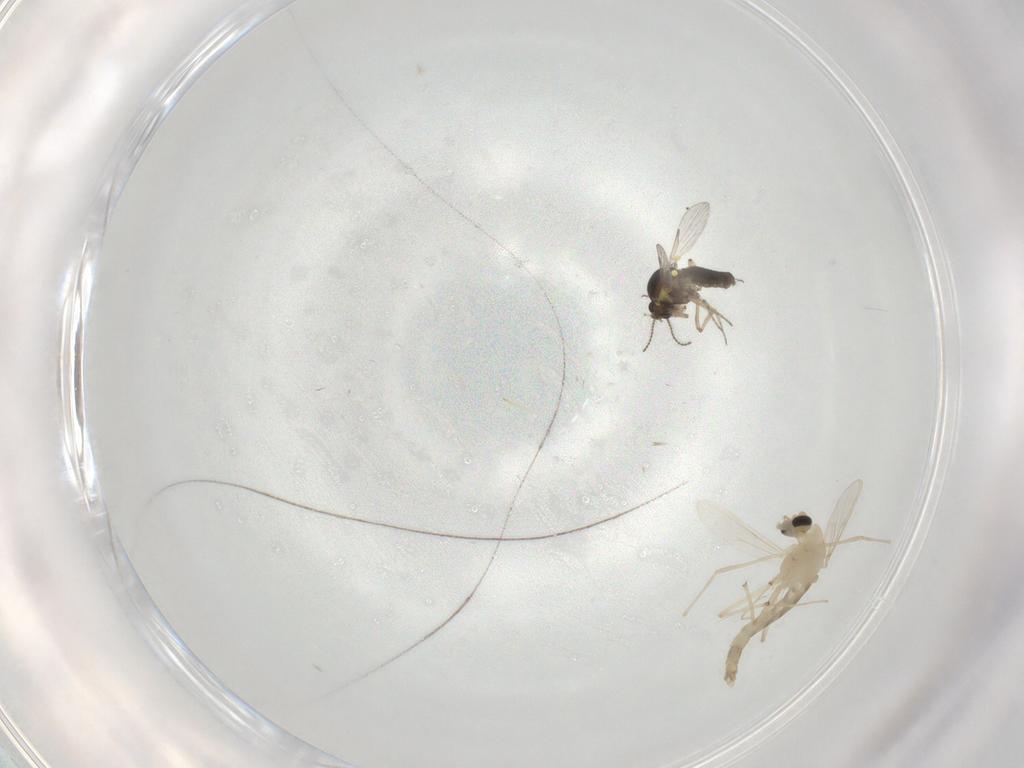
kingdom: Animalia
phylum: Arthropoda
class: Insecta
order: Diptera
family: Chironomidae
